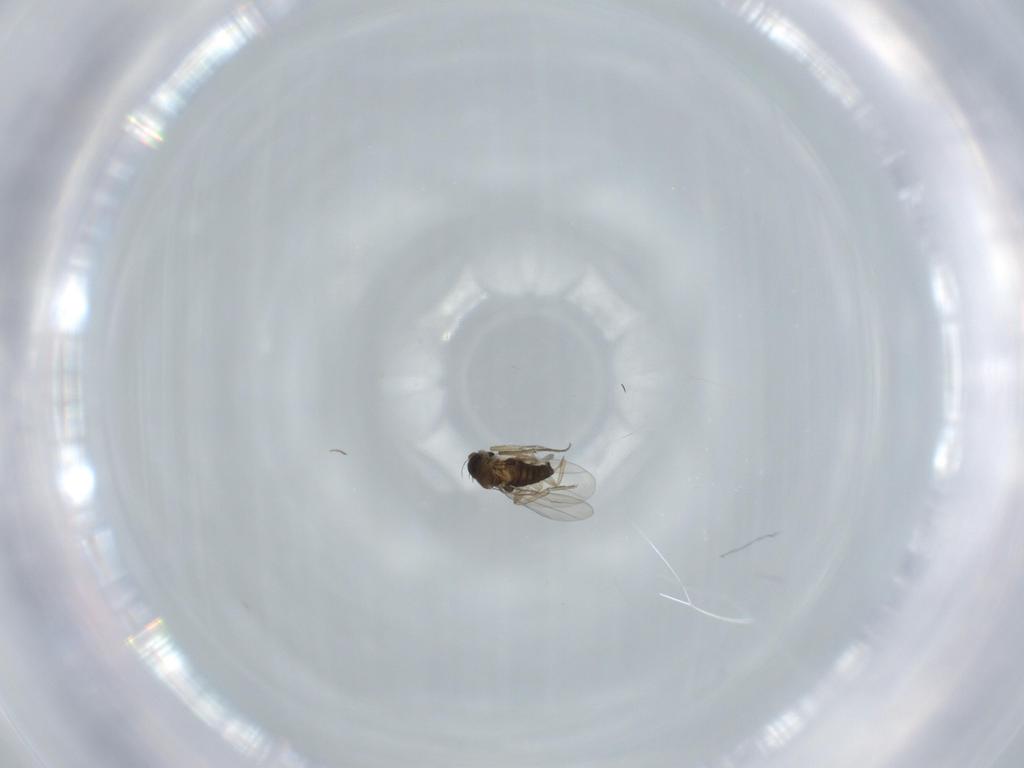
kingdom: Animalia
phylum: Arthropoda
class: Insecta
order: Diptera
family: Phoridae
